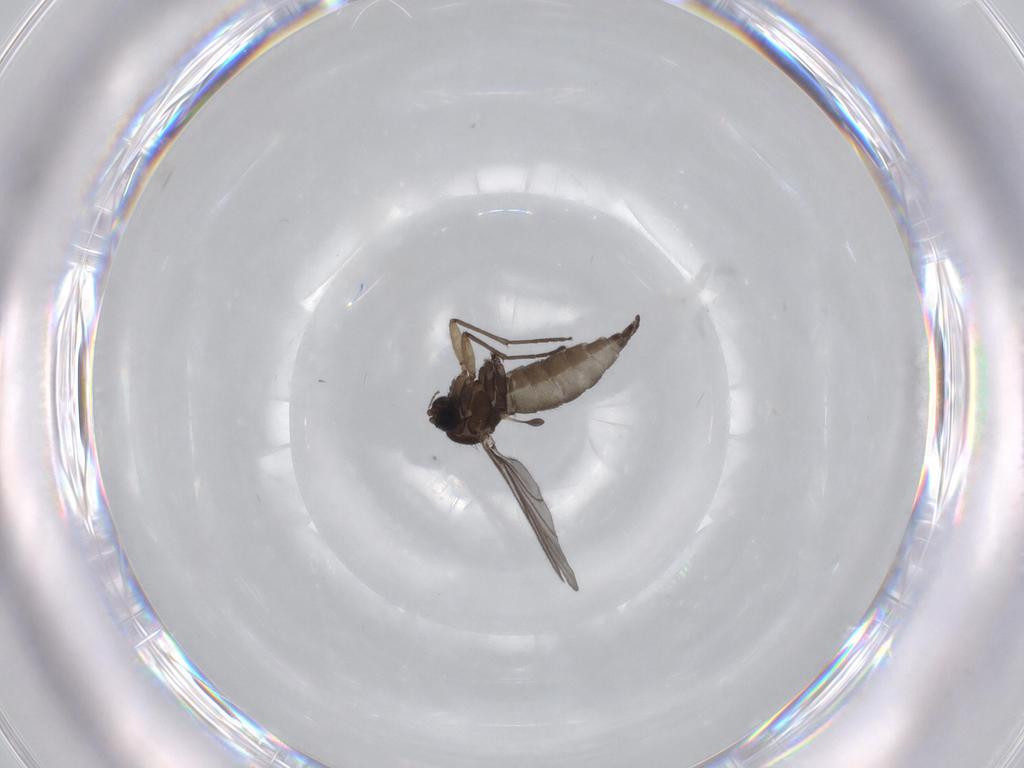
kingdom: Animalia
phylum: Arthropoda
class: Insecta
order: Diptera
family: Sciaridae
